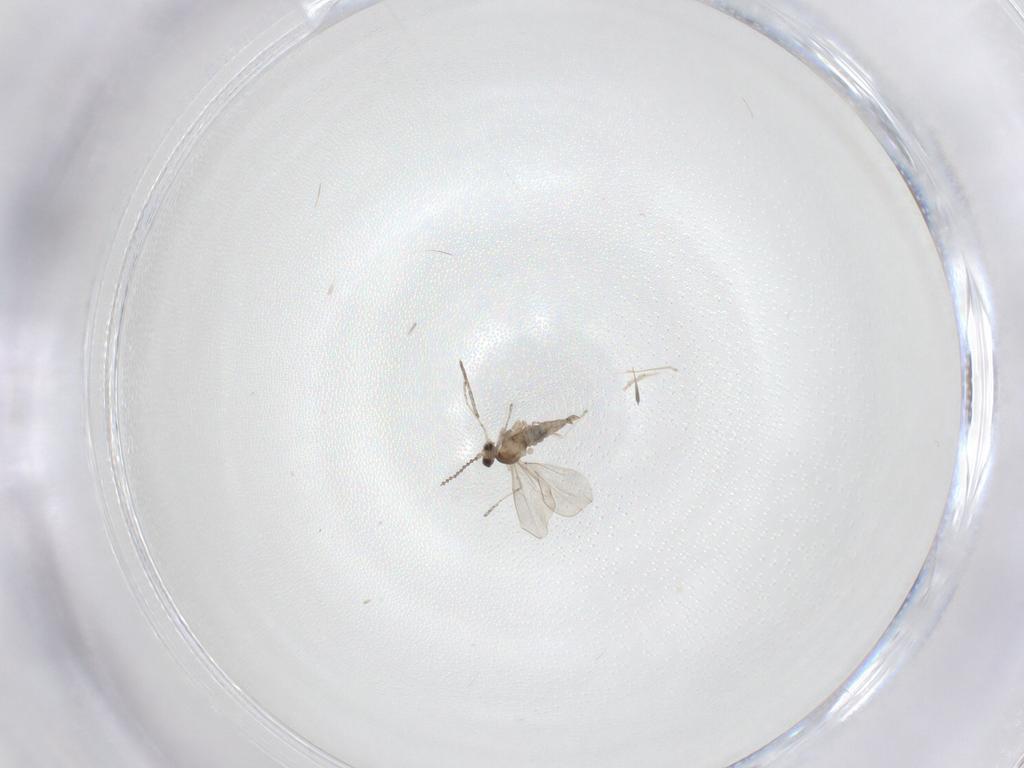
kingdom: Animalia
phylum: Arthropoda
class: Insecta
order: Diptera
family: Cecidomyiidae
